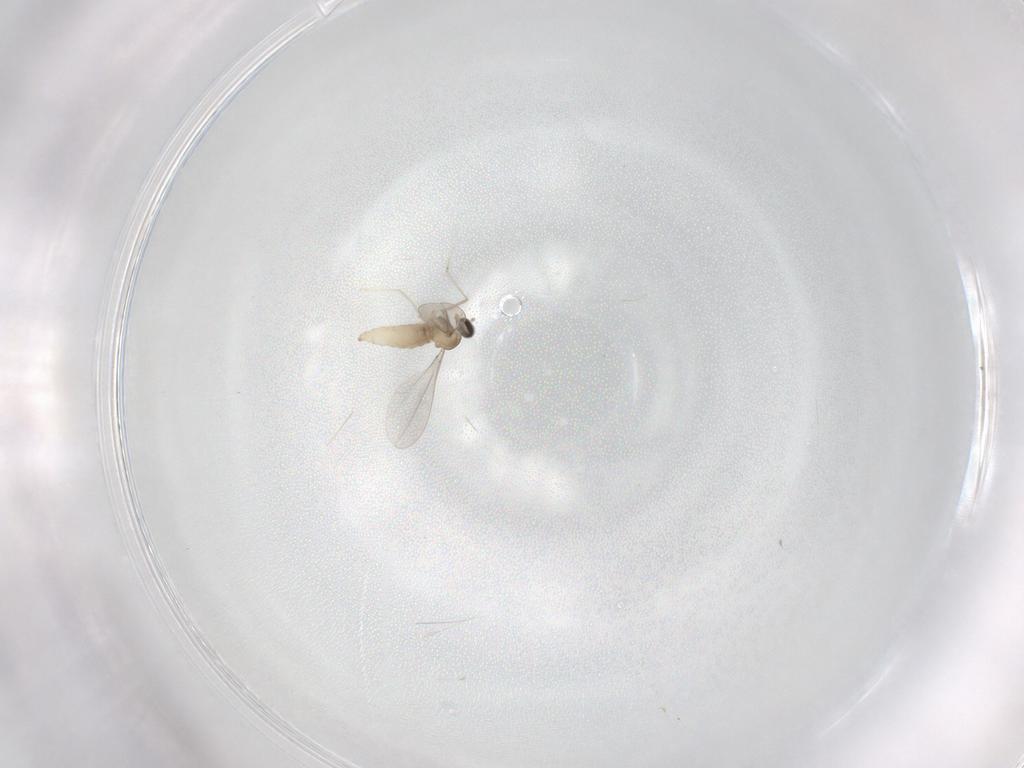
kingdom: Animalia
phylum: Arthropoda
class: Insecta
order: Diptera
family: Cecidomyiidae
